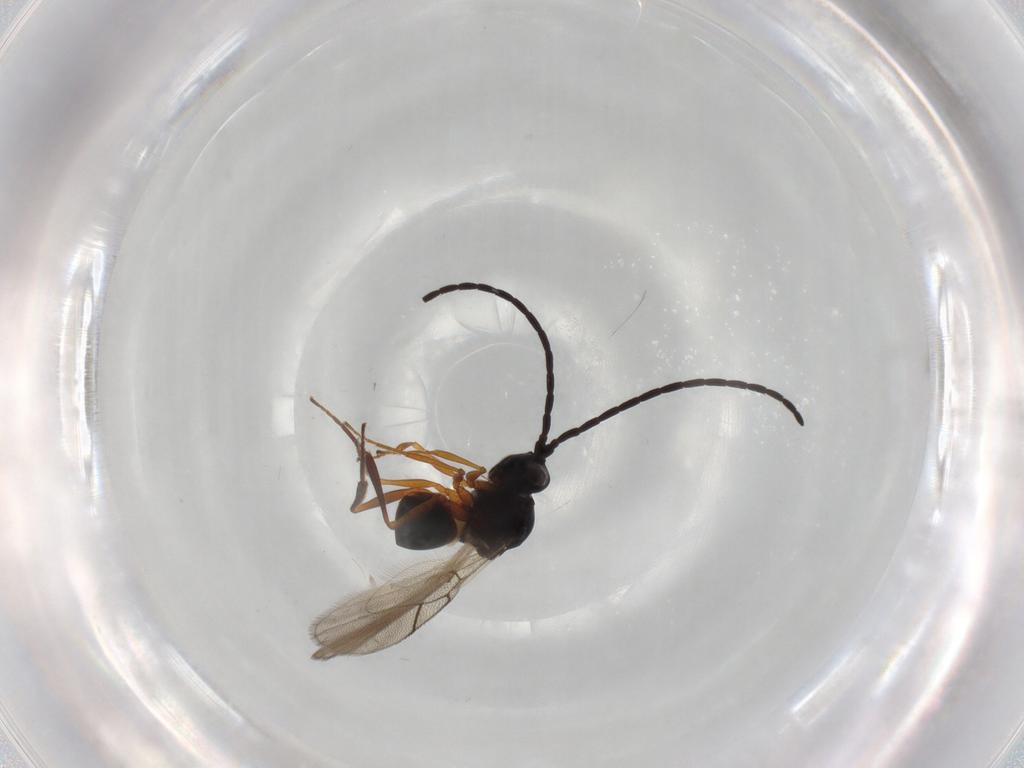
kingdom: Animalia
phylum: Arthropoda
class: Insecta
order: Hymenoptera
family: Figitidae
